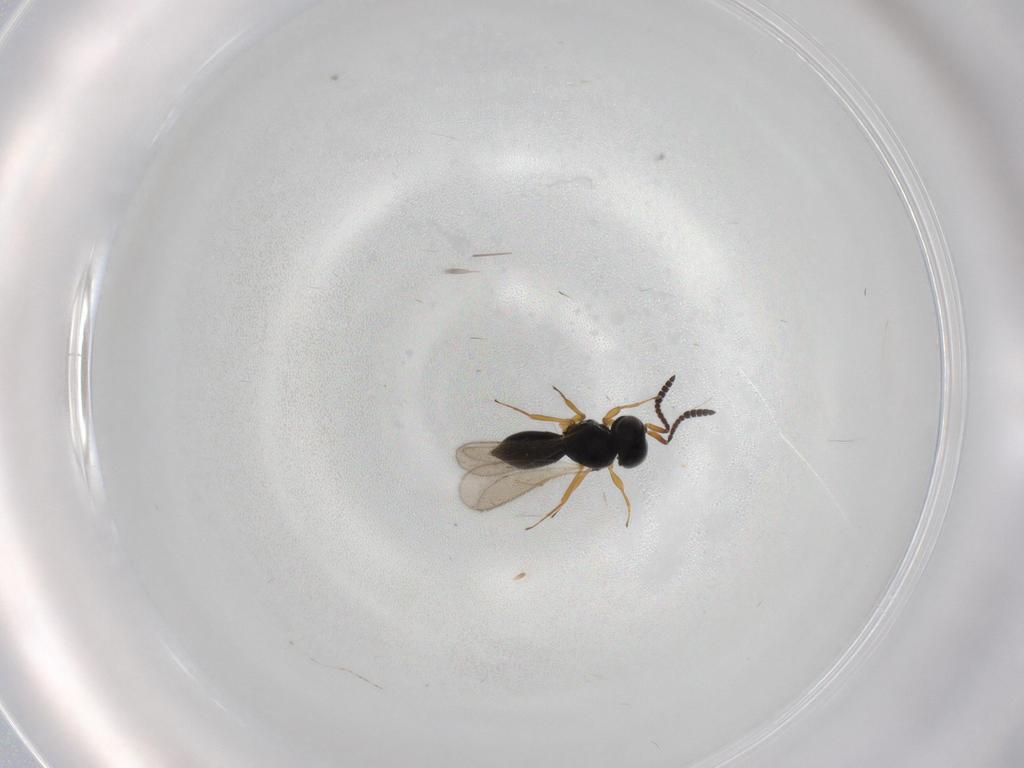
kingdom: Animalia
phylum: Arthropoda
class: Insecta
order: Hymenoptera
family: Scelionidae
